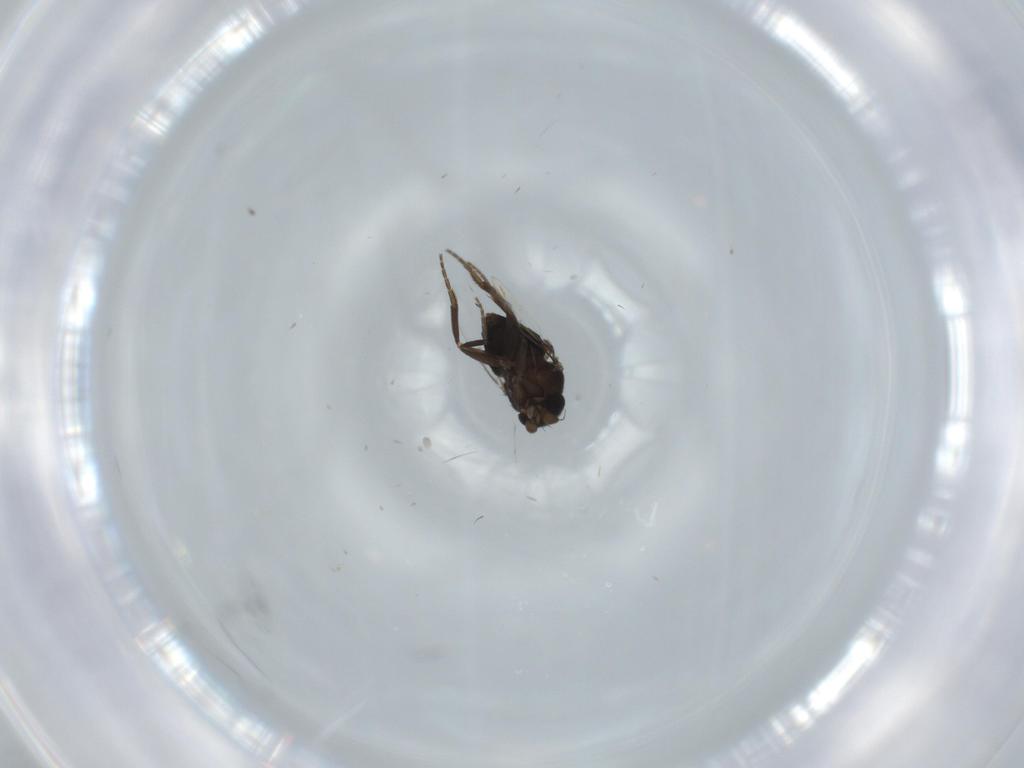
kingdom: Animalia
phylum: Arthropoda
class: Insecta
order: Diptera
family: Phoridae
